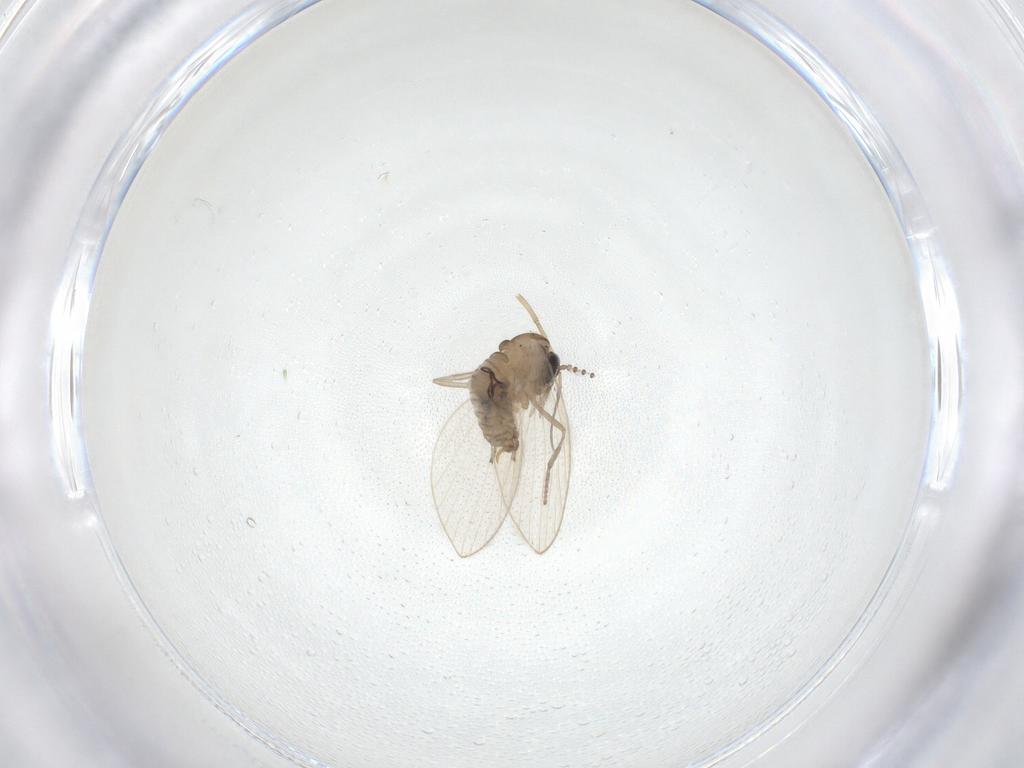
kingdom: Animalia
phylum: Arthropoda
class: Insecta
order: Diptera
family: Psychodidae
